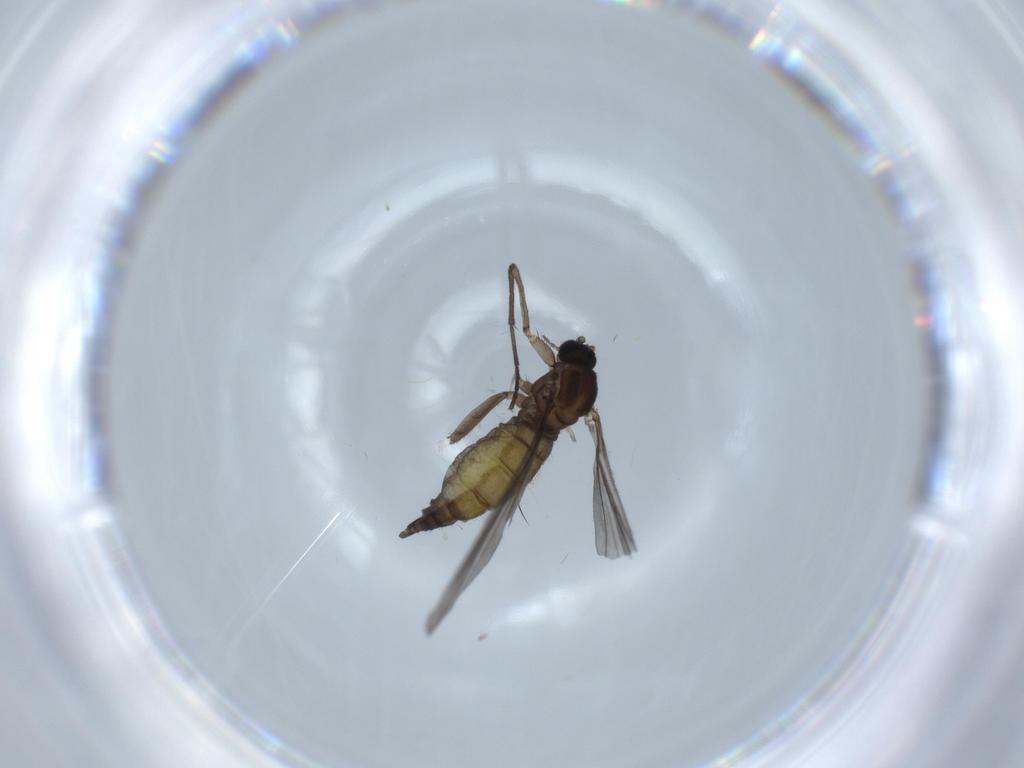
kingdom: Animalia
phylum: Arthropoda
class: Insecta
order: Diptera
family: Sciaridae
